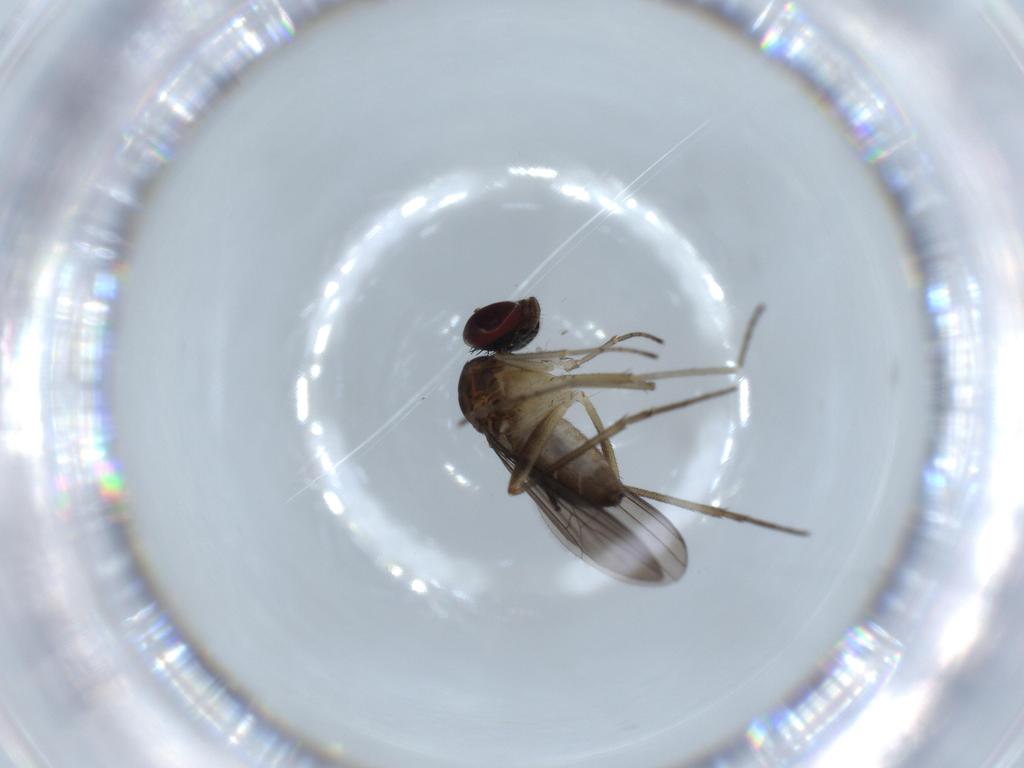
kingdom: Animalia
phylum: Arthropoda
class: Insecta
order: Diptera
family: Dolichopodidae
